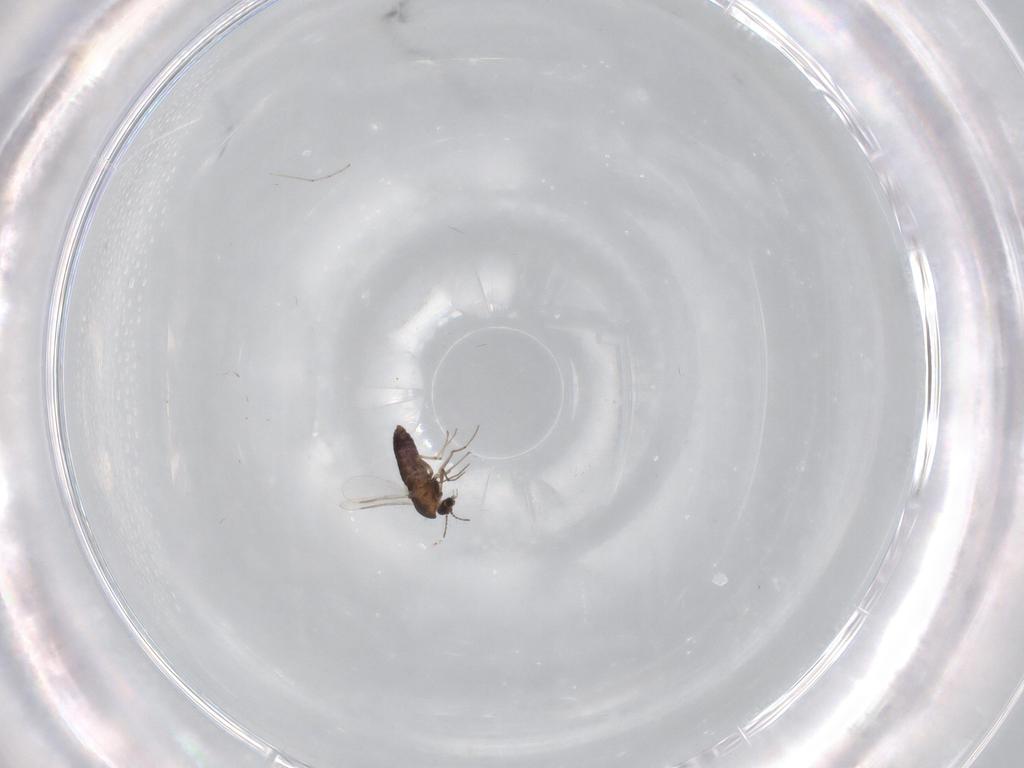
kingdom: Animalia
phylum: Arthropoda
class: Insecta
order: Diptera
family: Chironomidae
